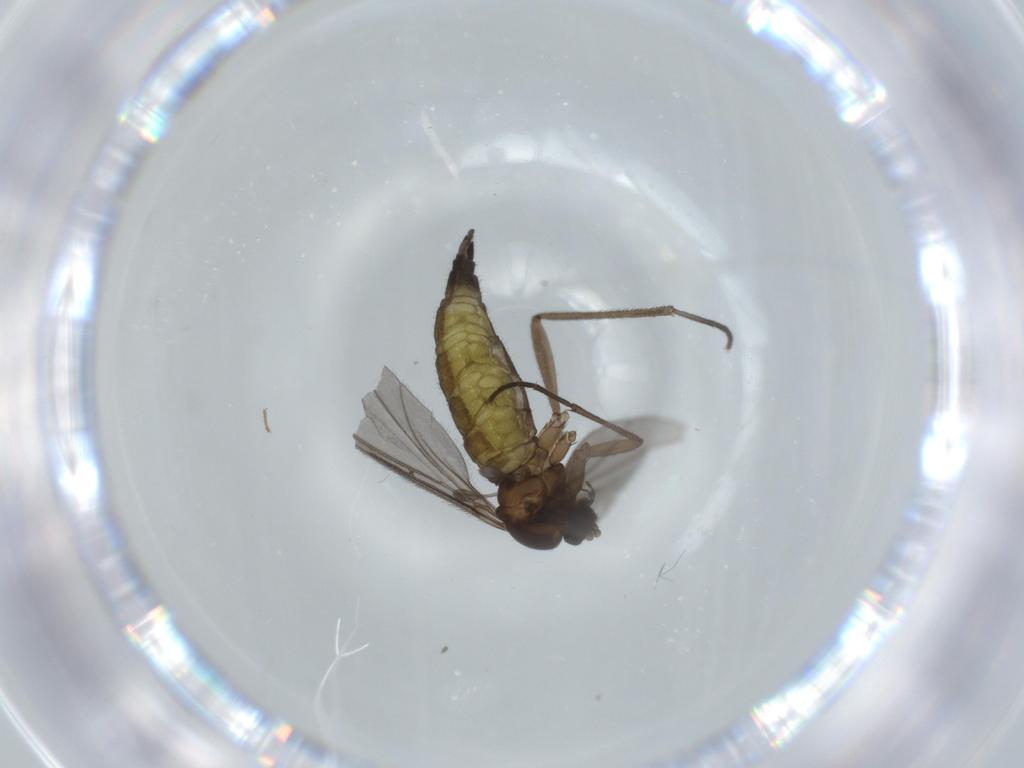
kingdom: Animalia
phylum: Arthropoda
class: Insecta
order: Diptera
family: Sciaridae
